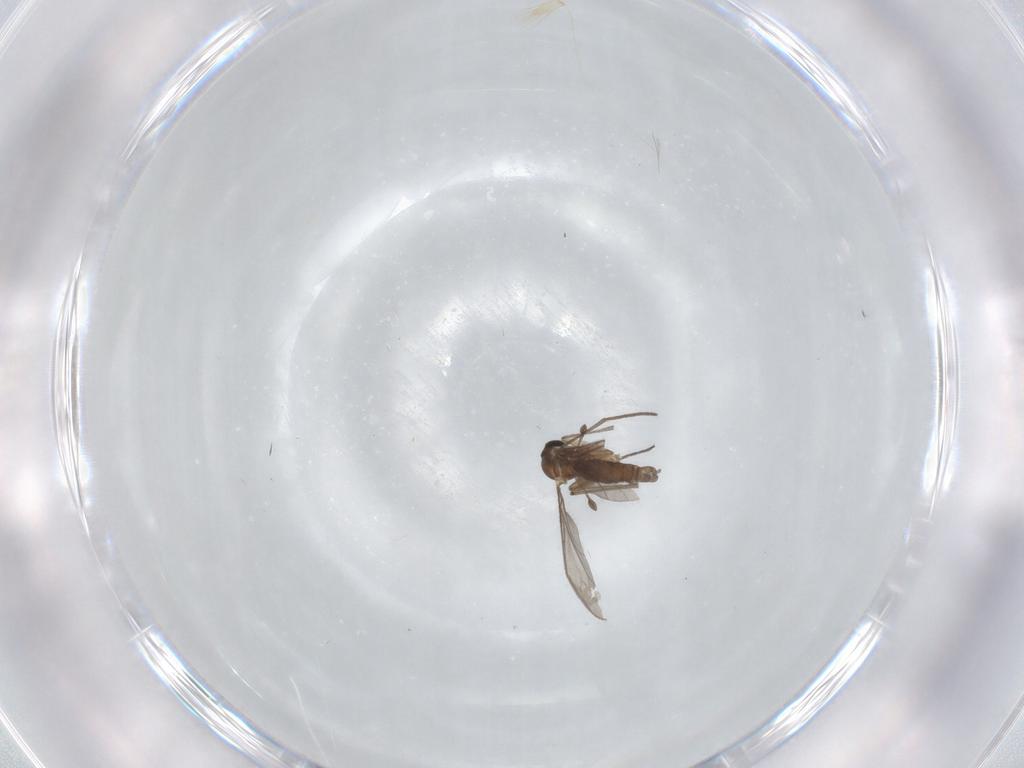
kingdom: Animalia
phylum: Arthropoda
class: Insecta
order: Diptera
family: Sciaridae
